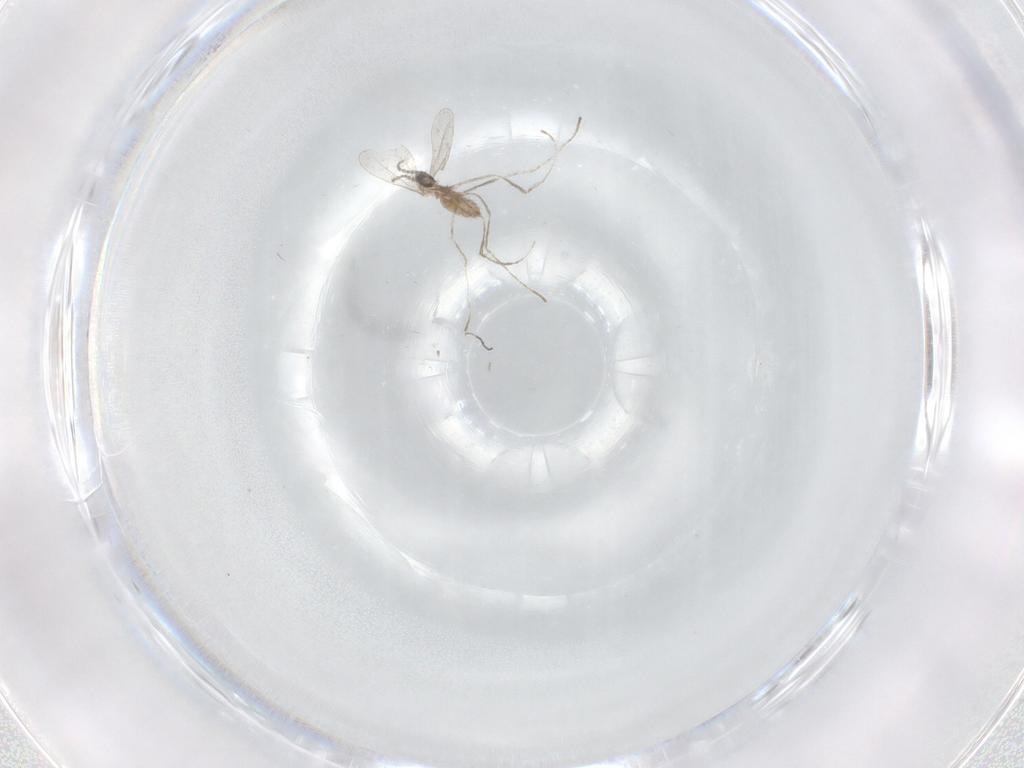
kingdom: Animalia
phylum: Arthropoda
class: Insecta
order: Diptera
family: Cecidomyiidae
